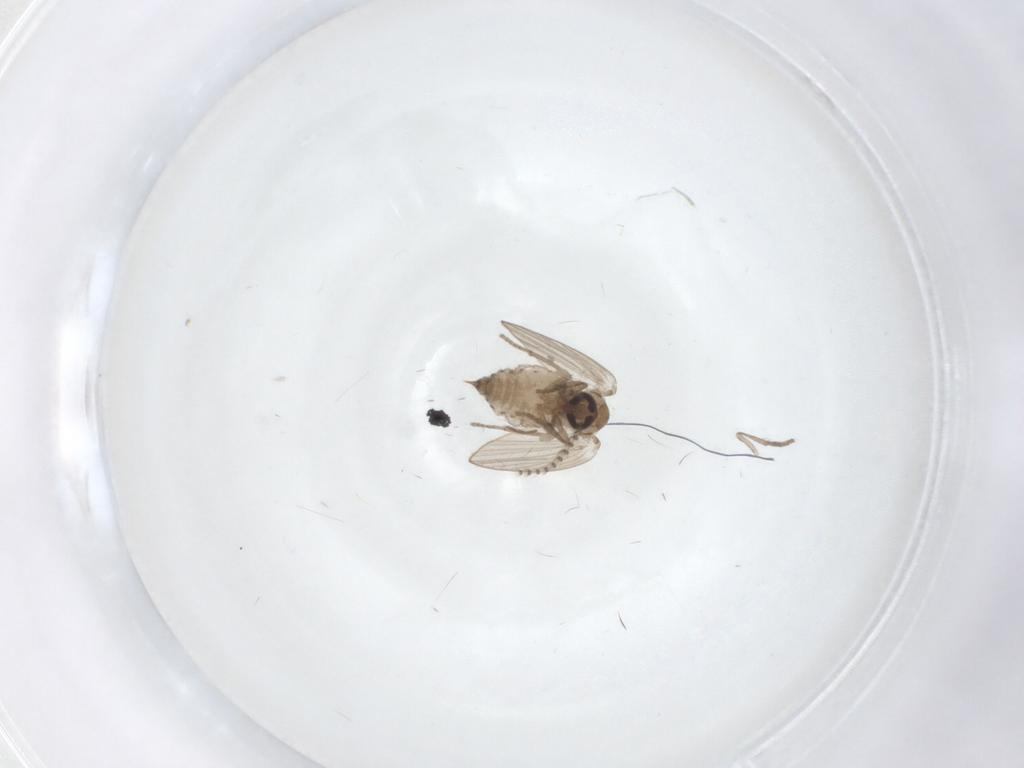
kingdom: Animalia
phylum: Arthropoda
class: Insecta
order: Diptera
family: Psychodidae
